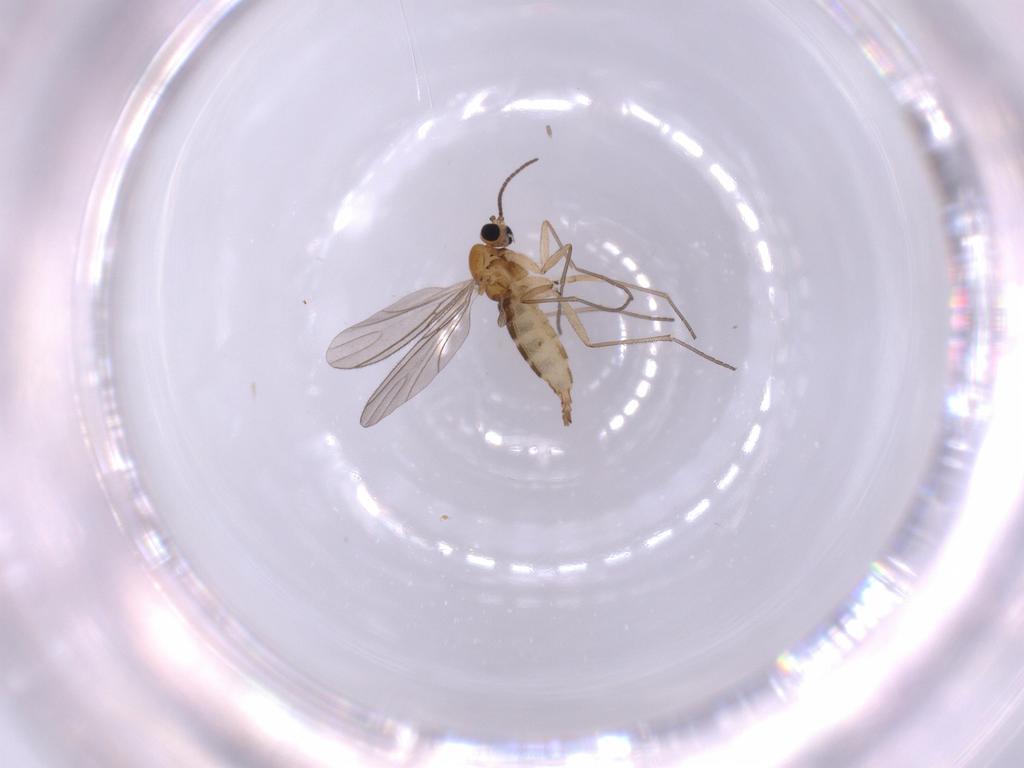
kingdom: Animalia
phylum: Arthropoda
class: Insecta
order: Diptera
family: Sciaridae
